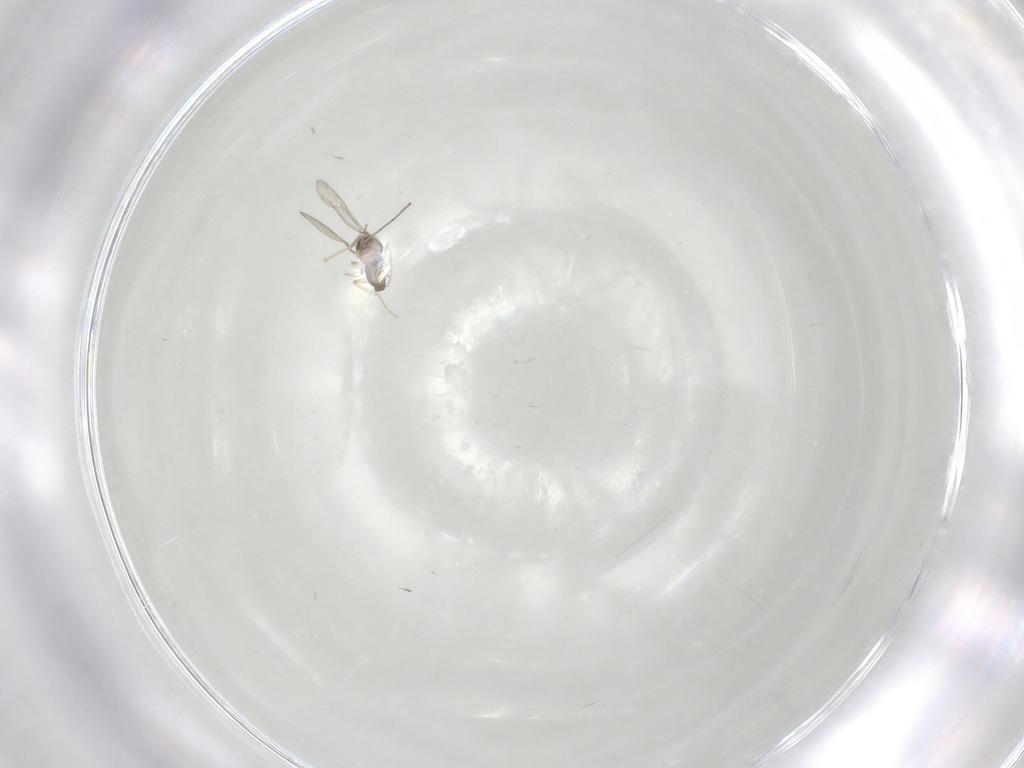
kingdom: Animalia
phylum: Arthropoda
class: Insecta
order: Diptera
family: Cecidomyiidae
